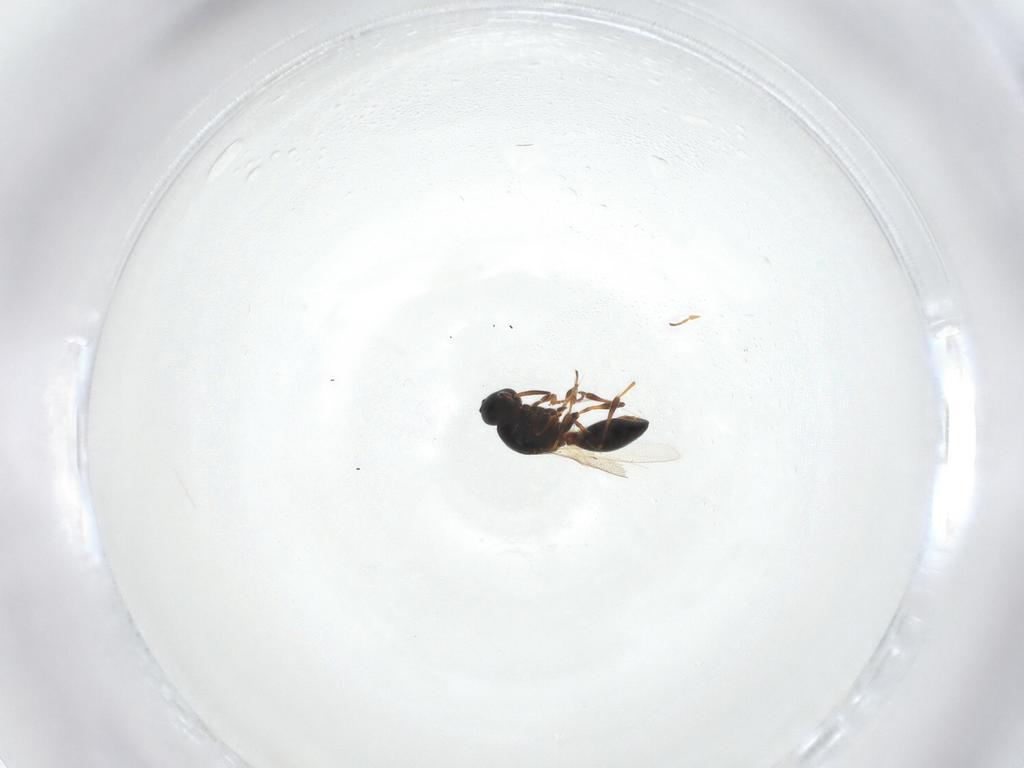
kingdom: Animalia
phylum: Arthropoda
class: Insecta
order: Hymenoptera
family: Platygastridae
